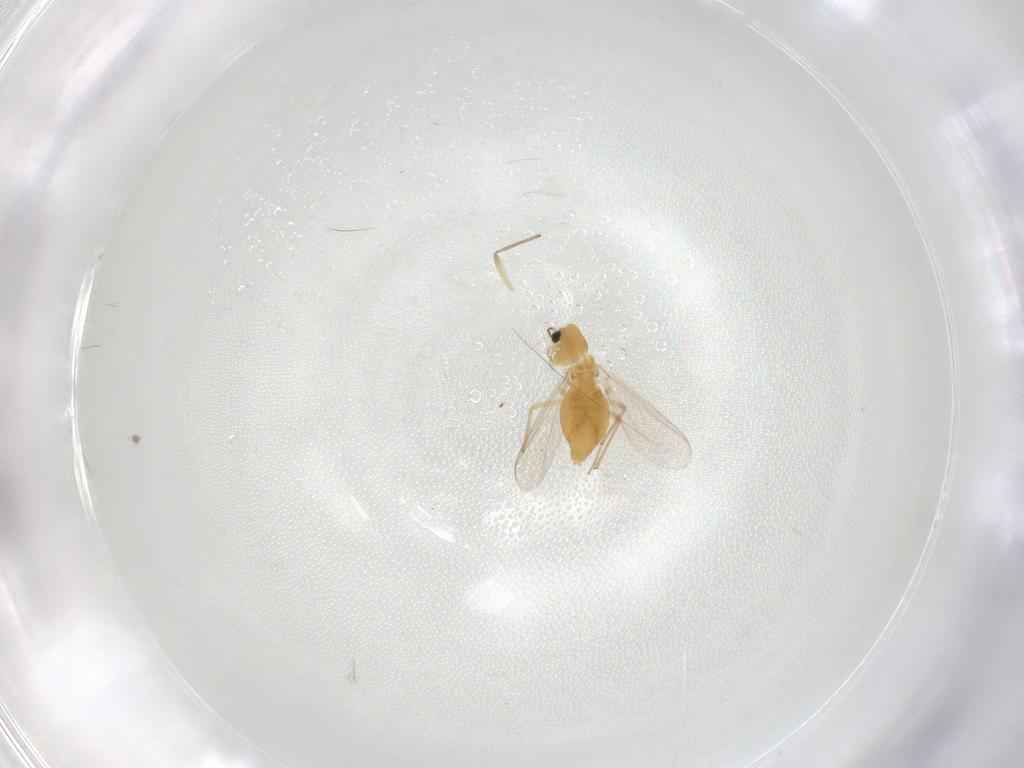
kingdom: Animalia
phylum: Arthropoda
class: Insecta
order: Diptera
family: Chironomidae
